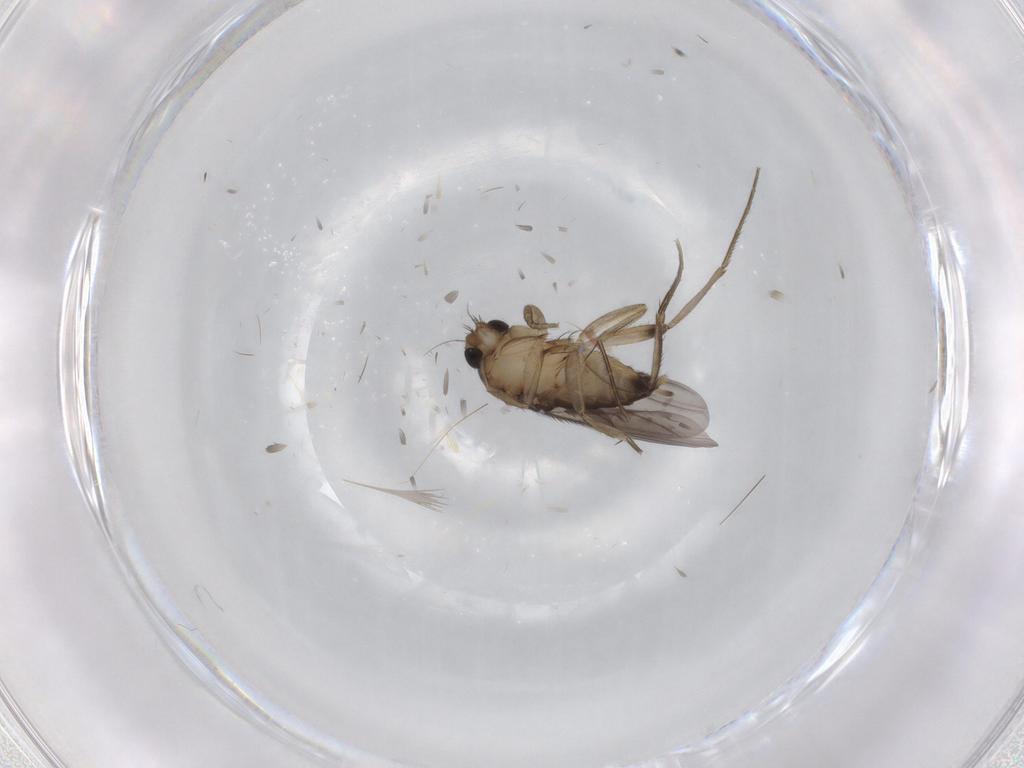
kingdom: Animalia
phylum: Arthropoda
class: Insecta
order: Diptera
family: Phoridae
